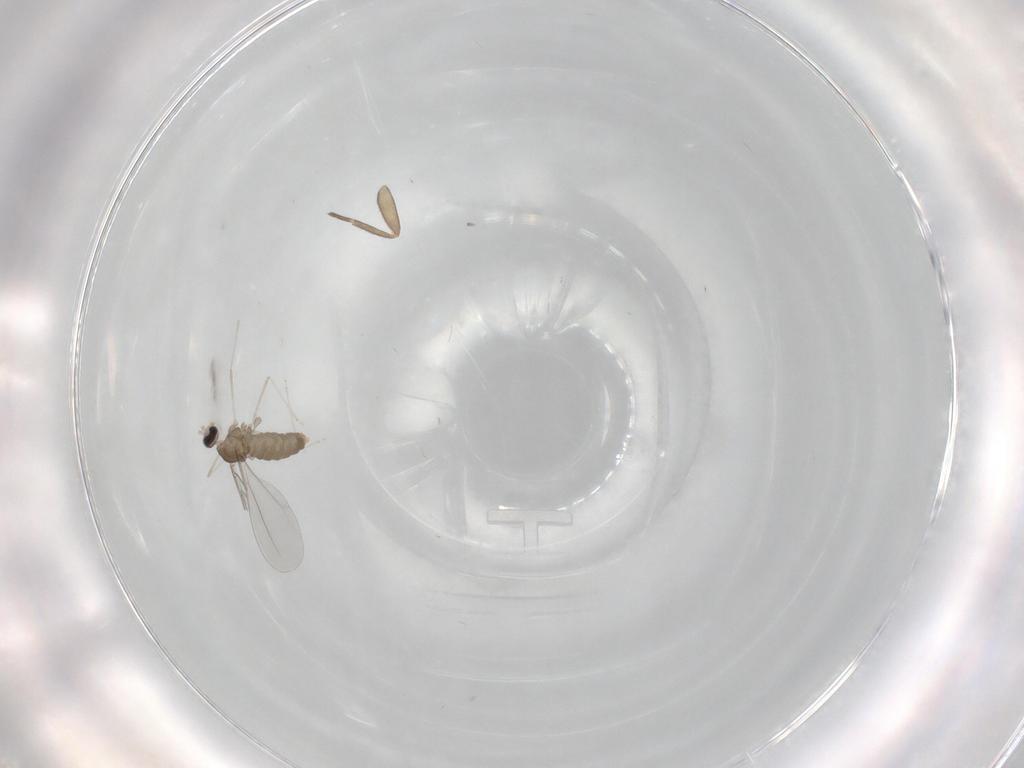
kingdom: Animalia
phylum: Arthropoda
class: Insecta
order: Diptera
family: Cecidomyiidae
